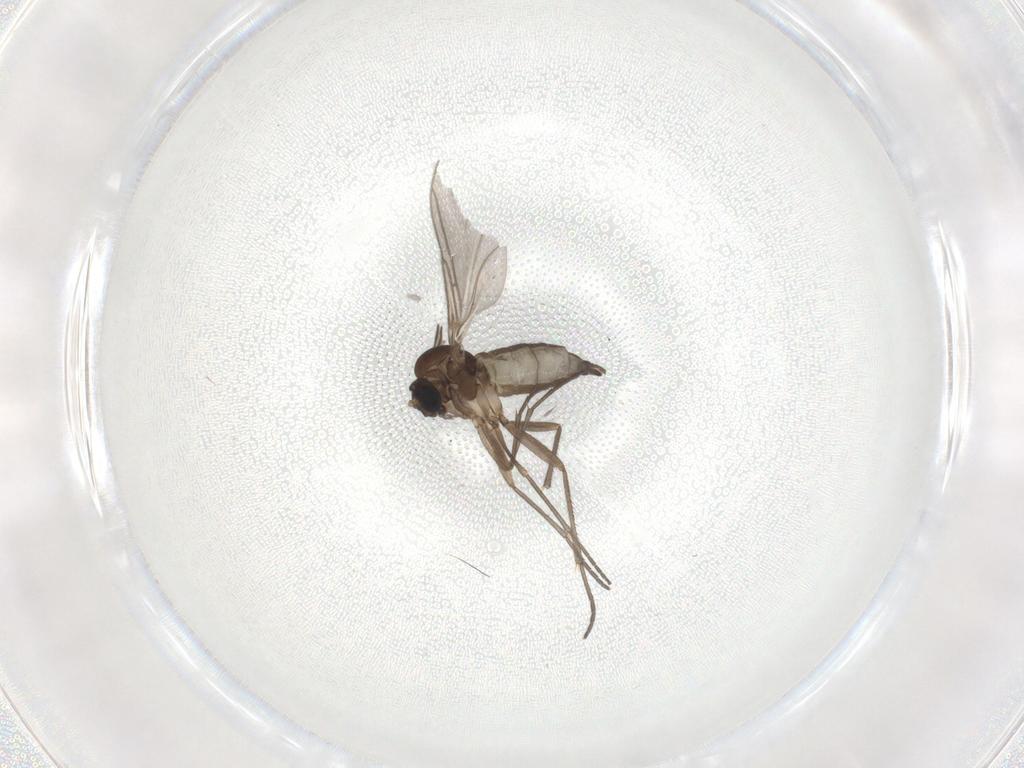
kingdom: Animalia
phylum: Arthropoda
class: Insecta
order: Diptera
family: Sciaridae
